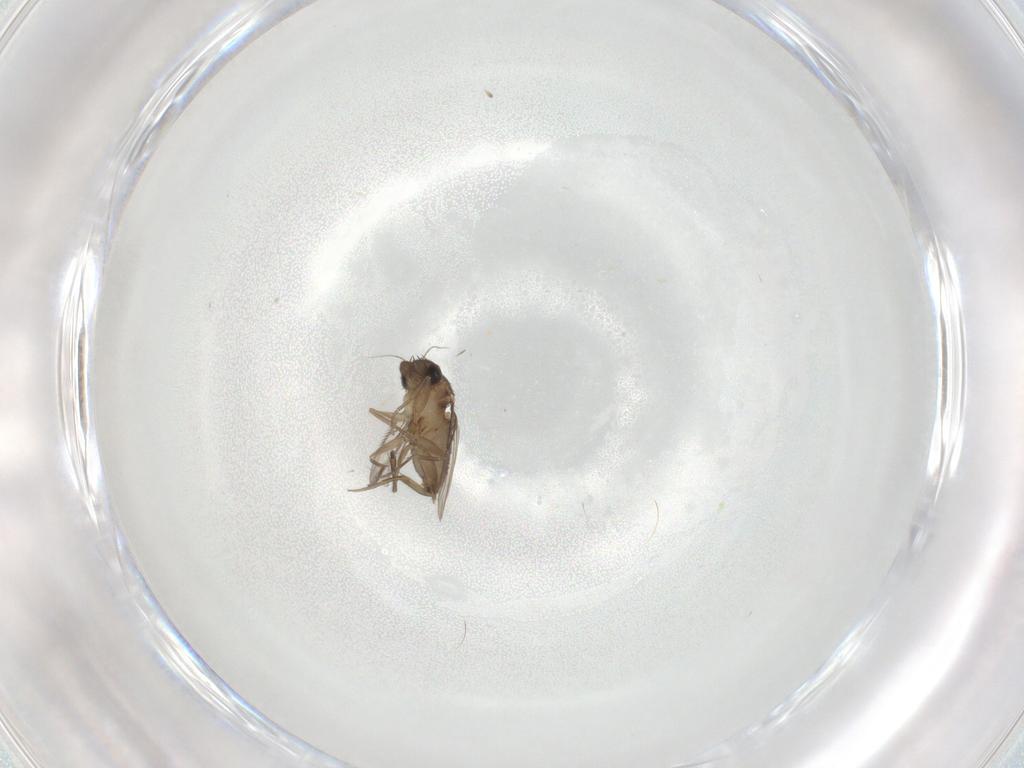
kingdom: Animalia
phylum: Arthropoda
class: Insecta
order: Diptera
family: Phoridae
